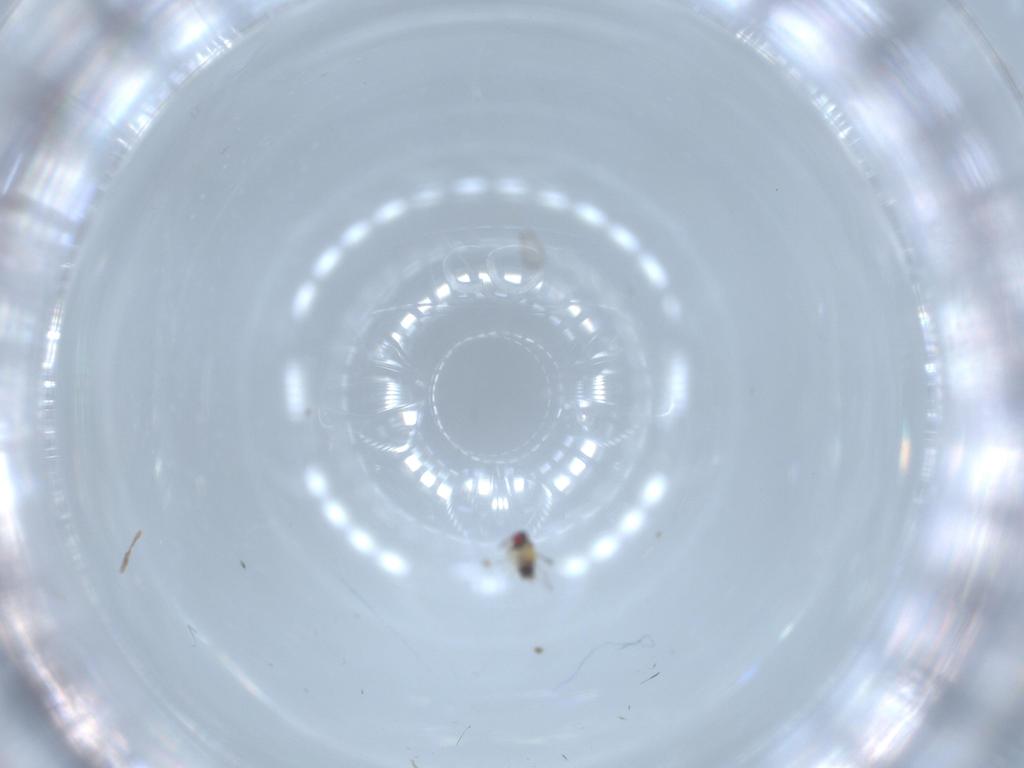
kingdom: Animalia
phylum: Arthropoda
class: Insecta
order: Hymenoptera
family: Aphelinidae
